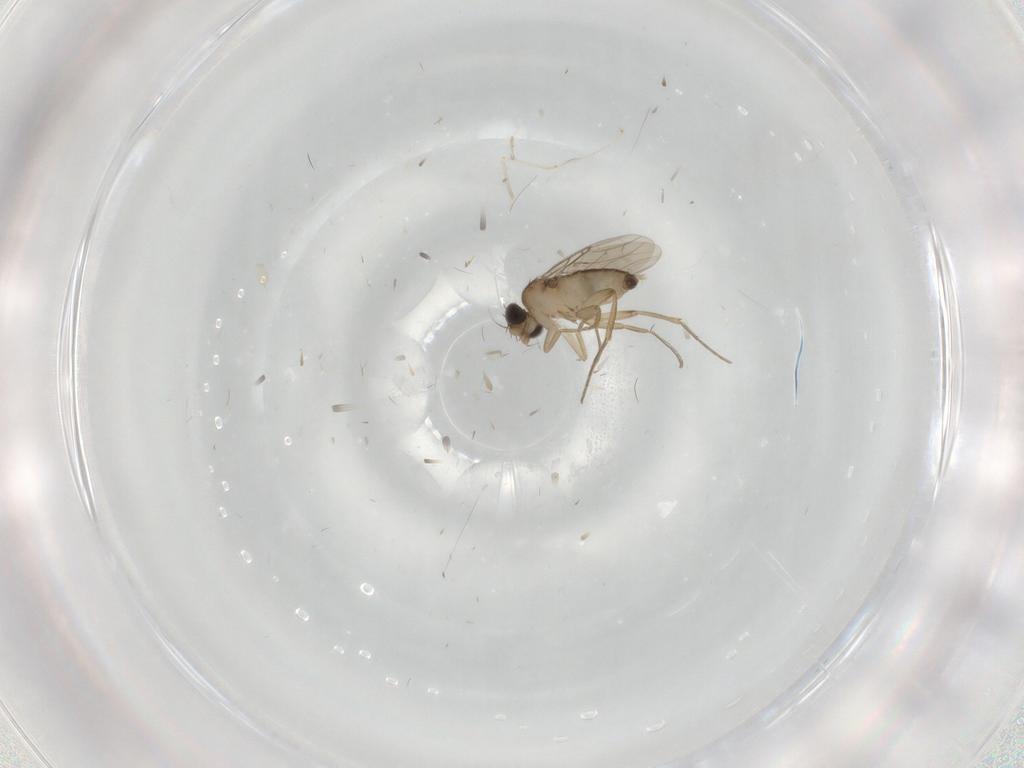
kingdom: Animalia
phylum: Arthropoda
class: Insecta
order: Diptera
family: Phoridae
